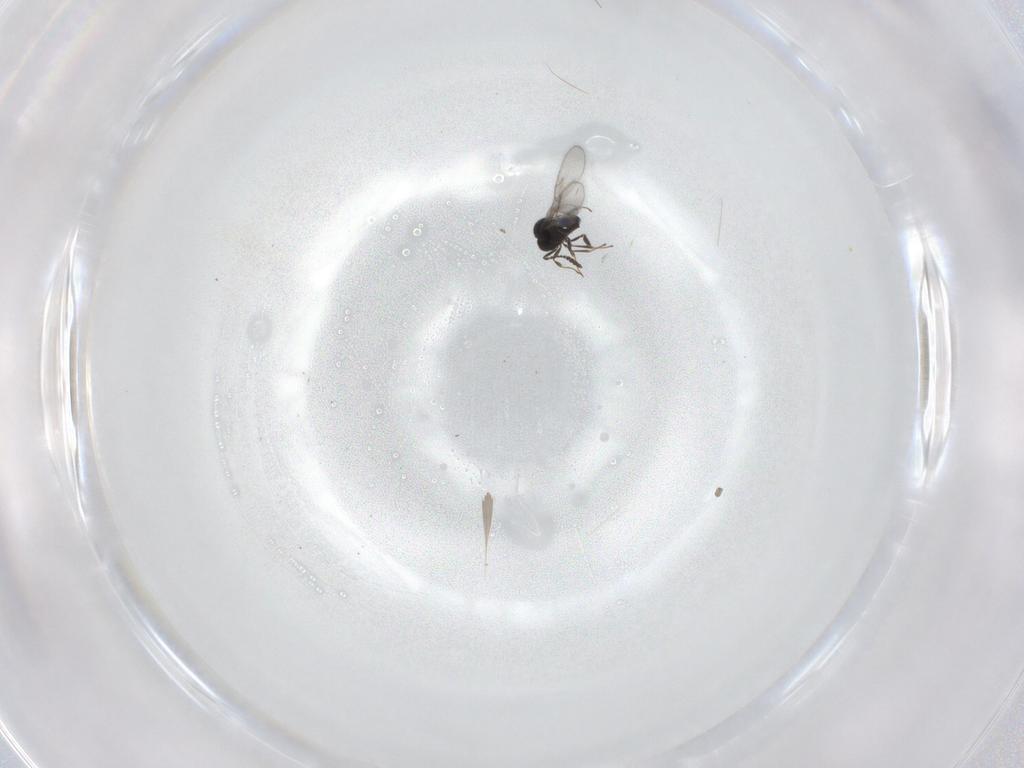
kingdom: Animalia
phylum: Arthropoda
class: Insecta
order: Hymenoptera
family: Scelionidae
